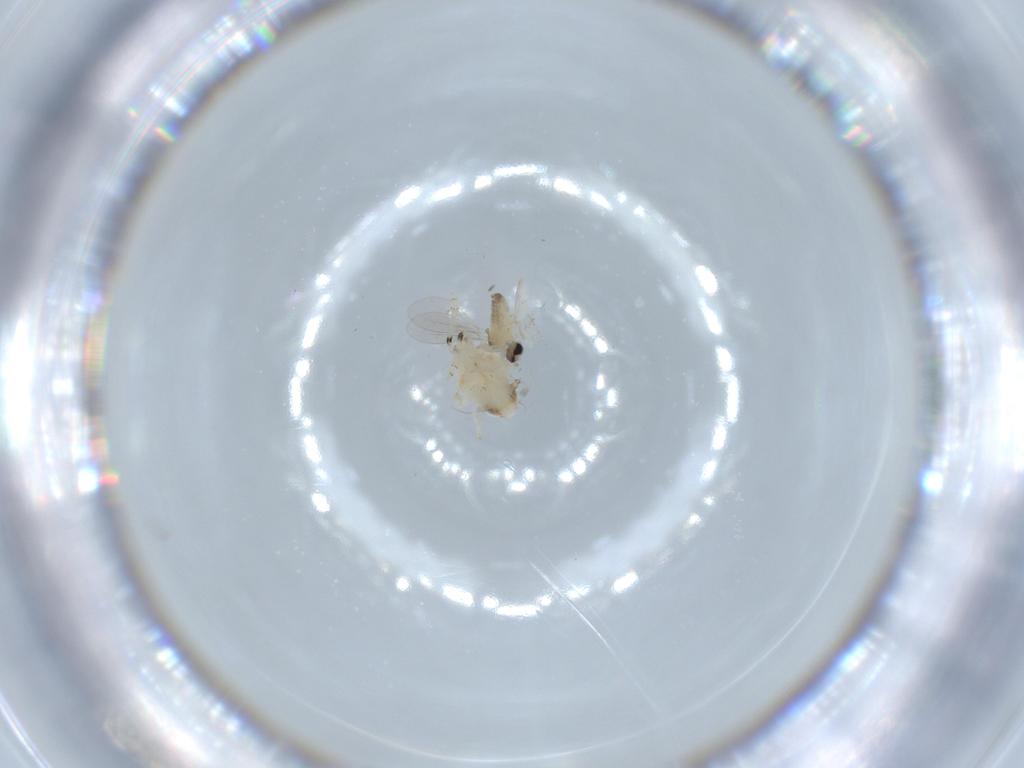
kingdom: Animalia
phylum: Arthropoda
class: Insecta
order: Diptera
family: Cecidomyiidae
